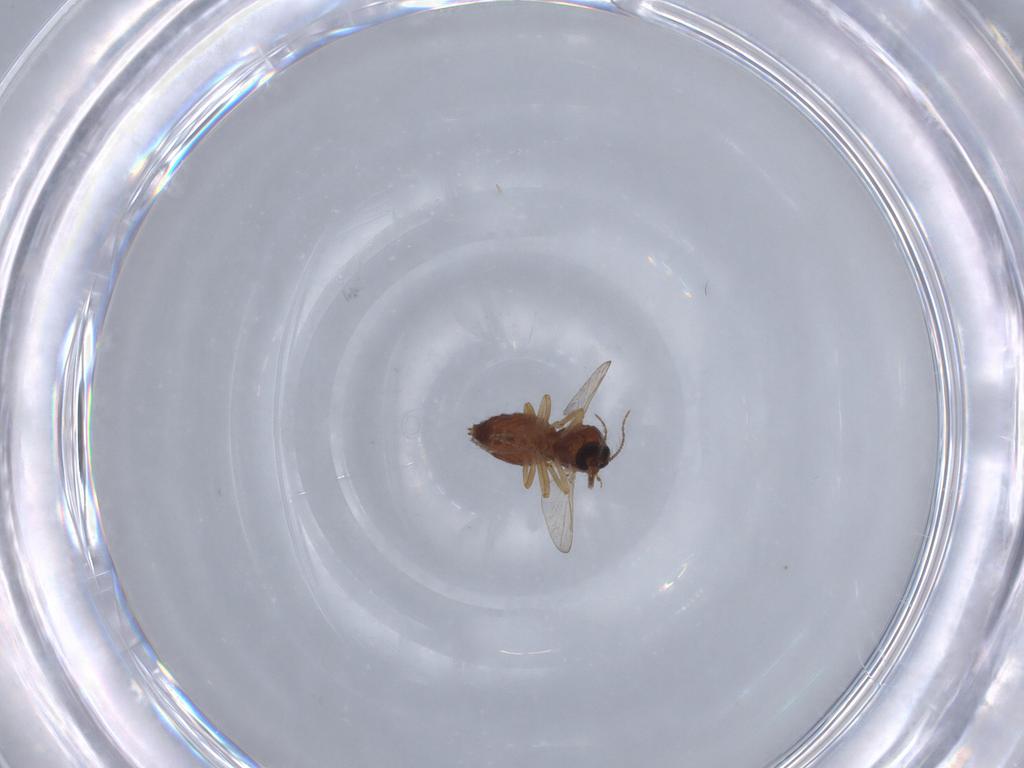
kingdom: Animalia
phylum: Arthropoda
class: Insecta
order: Diptera
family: Ceratopogonidae
